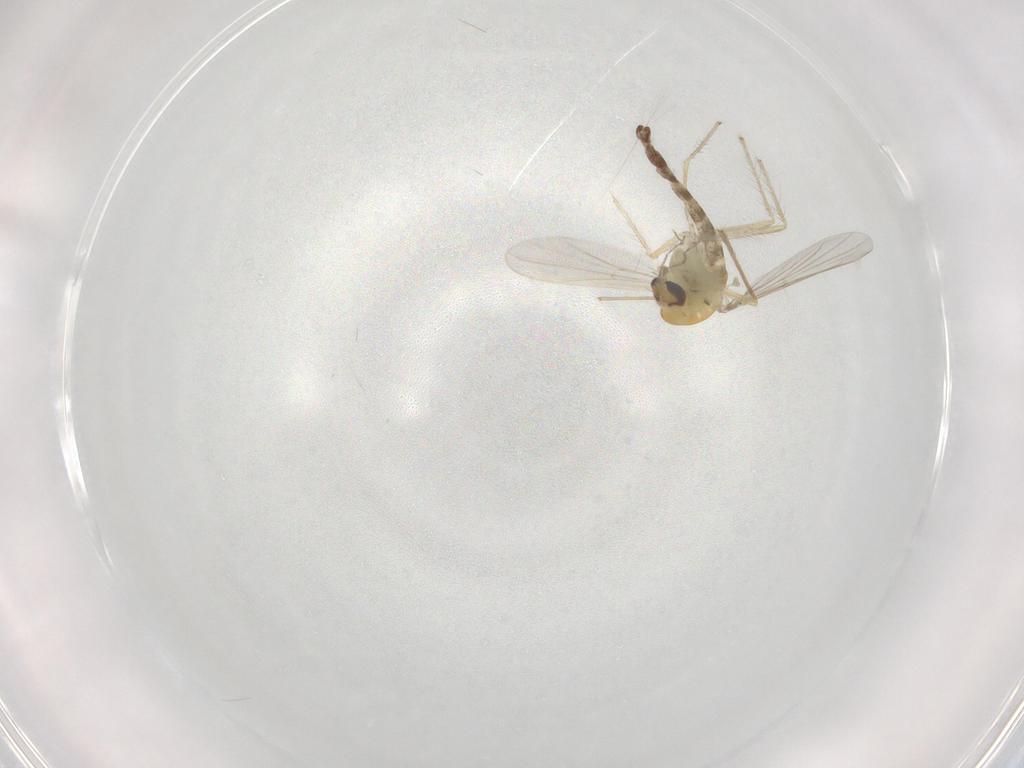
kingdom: Animalia
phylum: Arthropoda
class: Insecta
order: Diptera
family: Chironomidae
